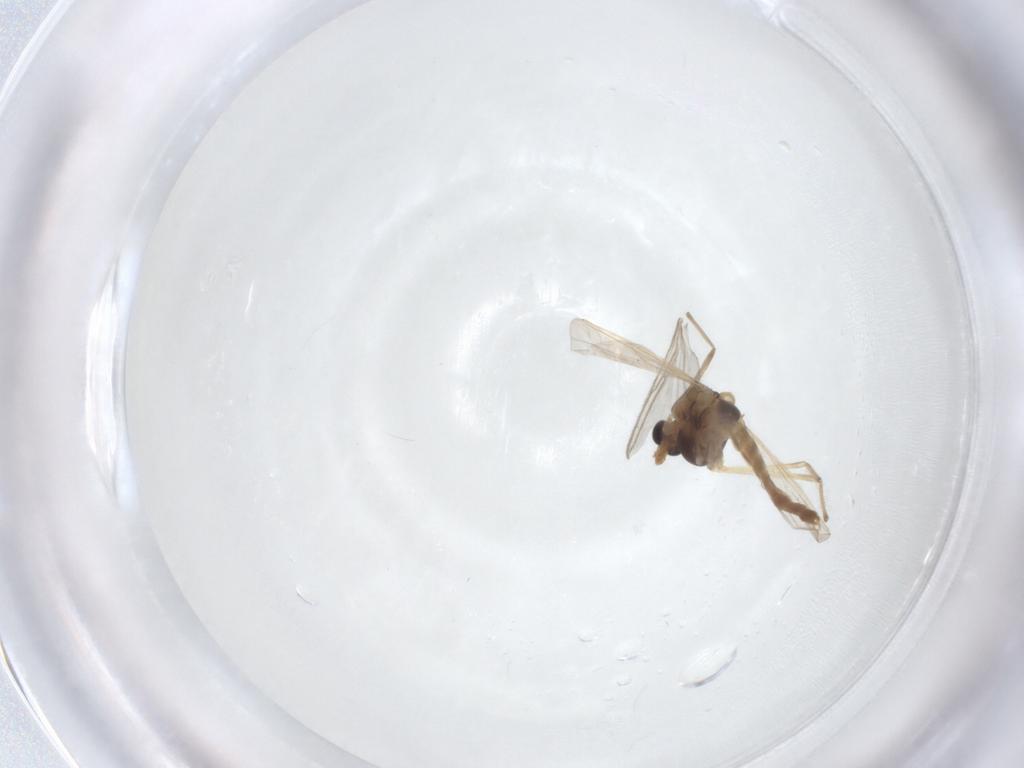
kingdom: Animalia
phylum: Arthropoda
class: Insecta
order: Diptera
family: Chironomidae
